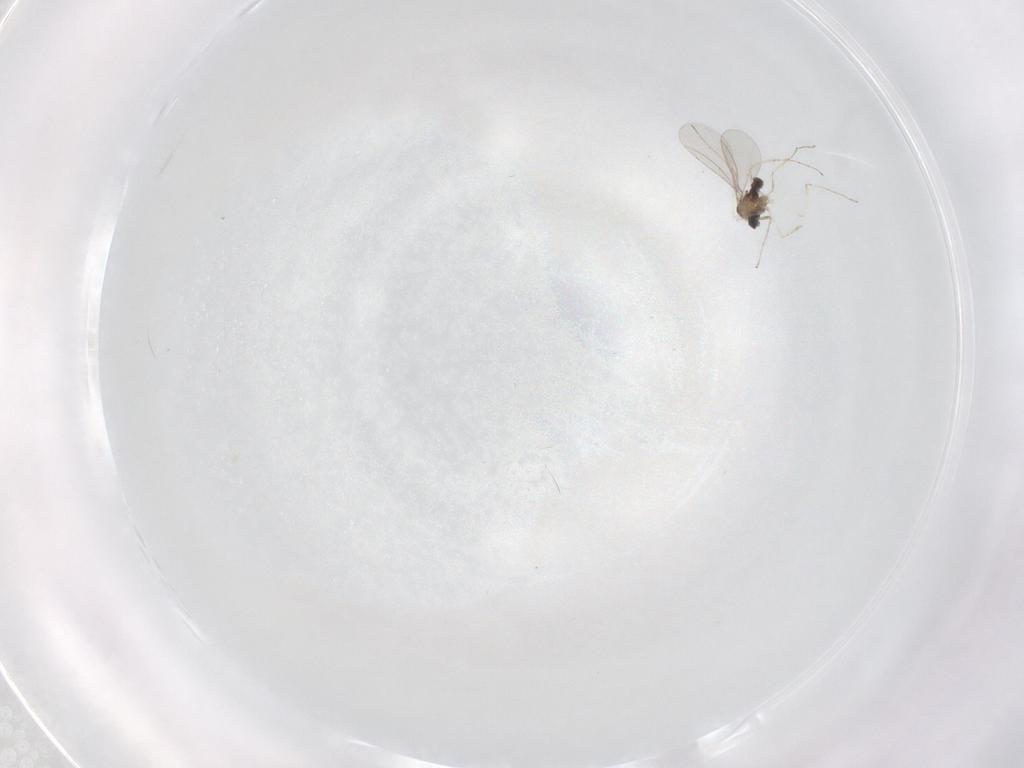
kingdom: Animalia
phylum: Arthropoda
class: Insecta
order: Diptera
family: Cecidomyiidae
